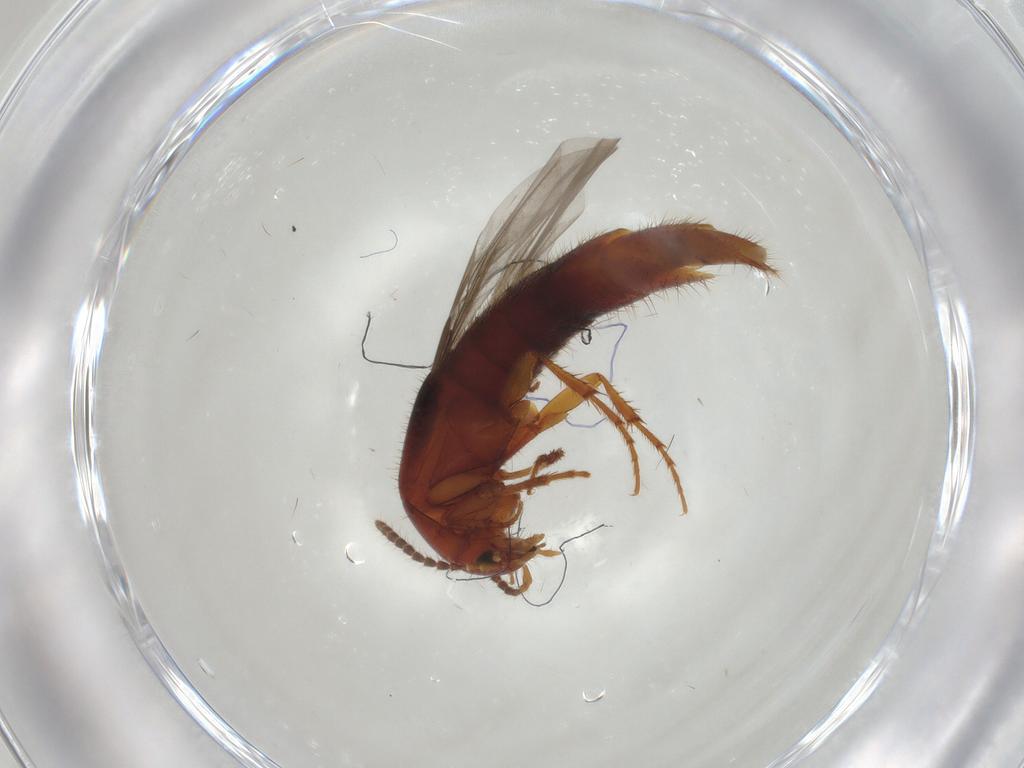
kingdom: Animalia
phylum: Arthropoda
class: Insecta
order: Coleoptera
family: Staphylinidae
